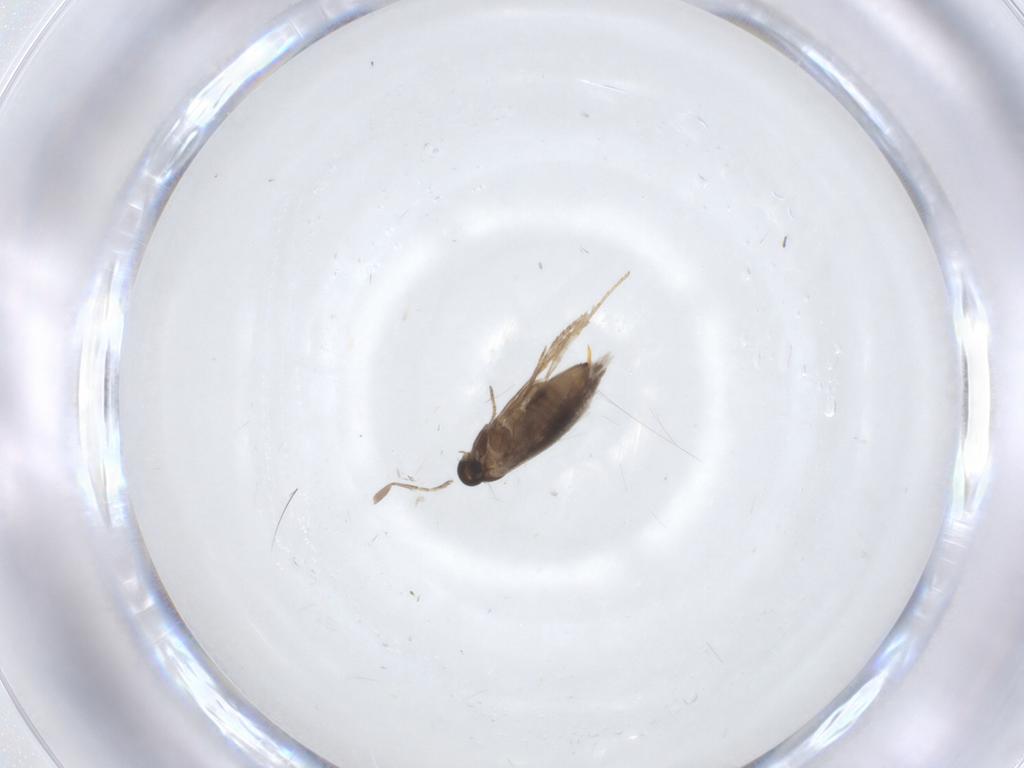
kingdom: Animalia
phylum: Arthropoda
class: Insecta
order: Lepidoptera
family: Heliozelidae
